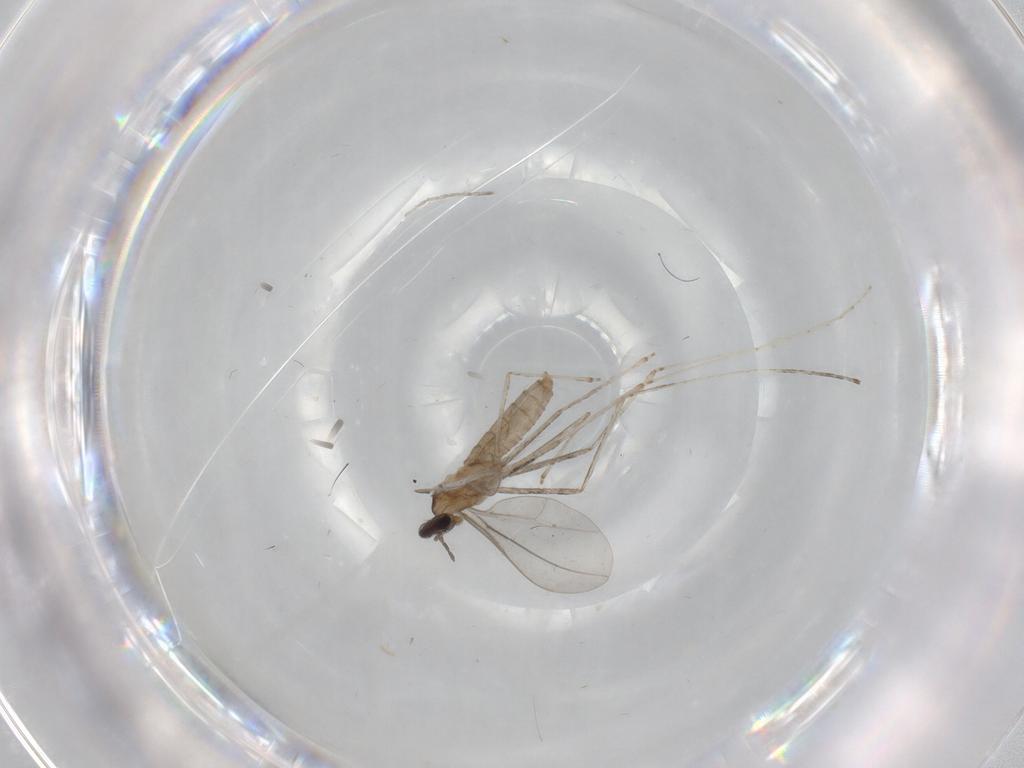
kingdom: Animalia
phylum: Arthropoda
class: Insecta
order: Diptera
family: Cecidomyiidae
